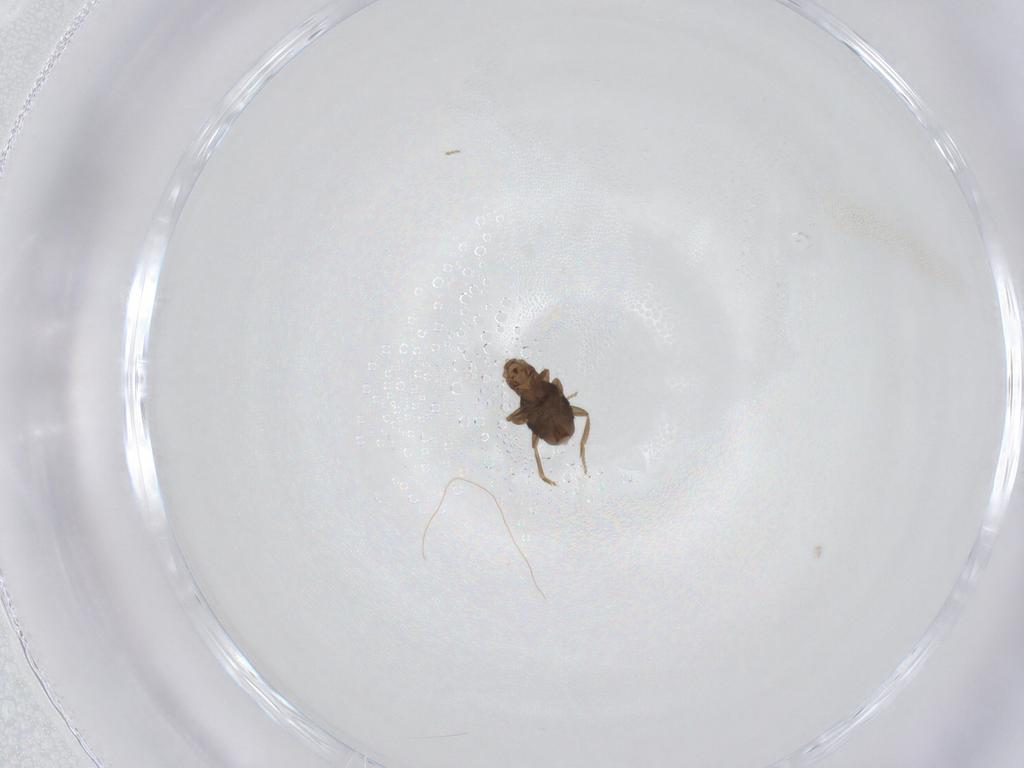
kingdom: Animalia
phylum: Arthropoda
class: Insecta
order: Diptera
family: Phoridae
